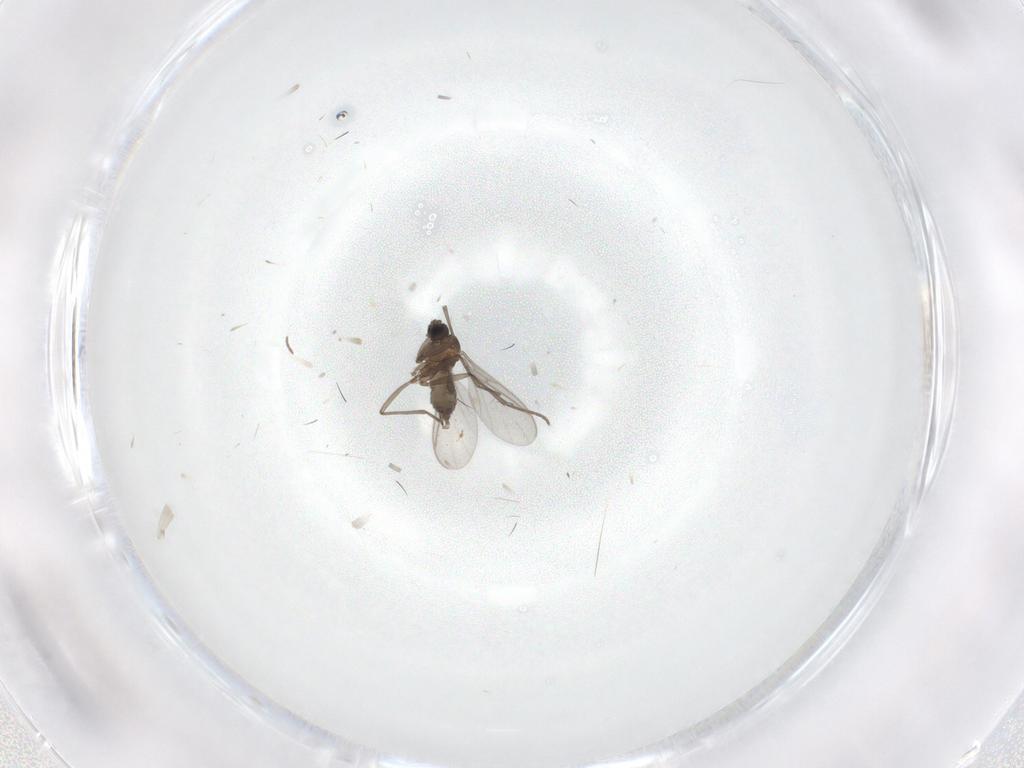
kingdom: Animalia
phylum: Arthropoda
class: Insecta
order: Diptera
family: Sciaridae
